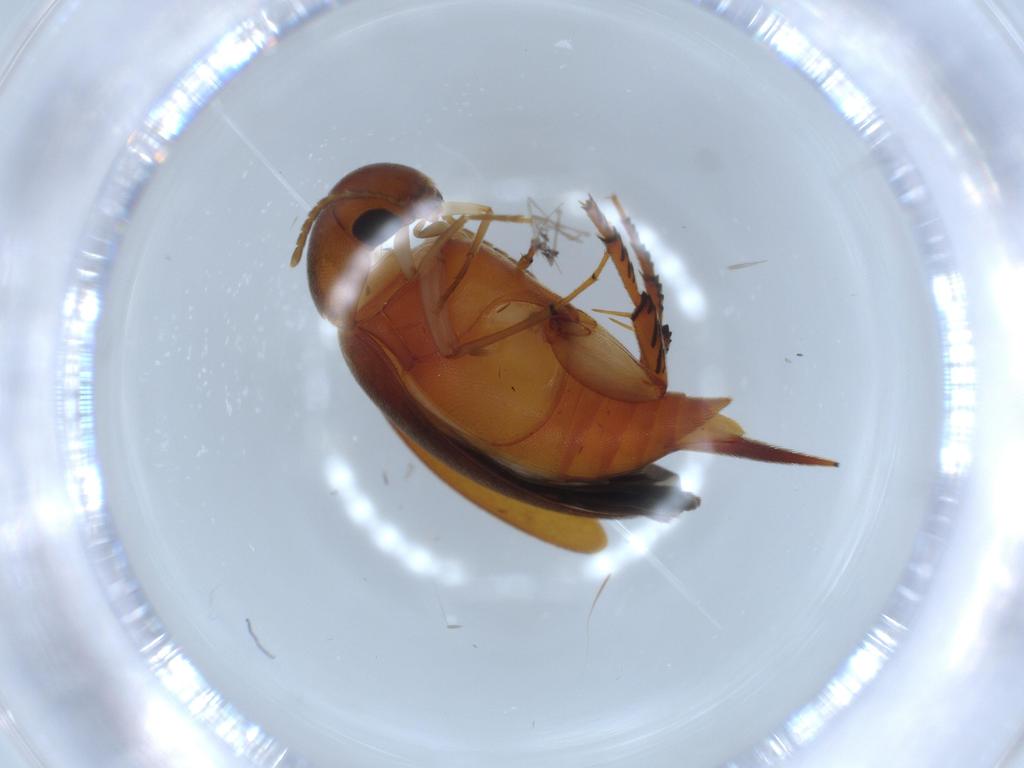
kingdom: Animalia
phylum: Arthropoda
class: Insecta
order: Coleoptera
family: Mordellidae
